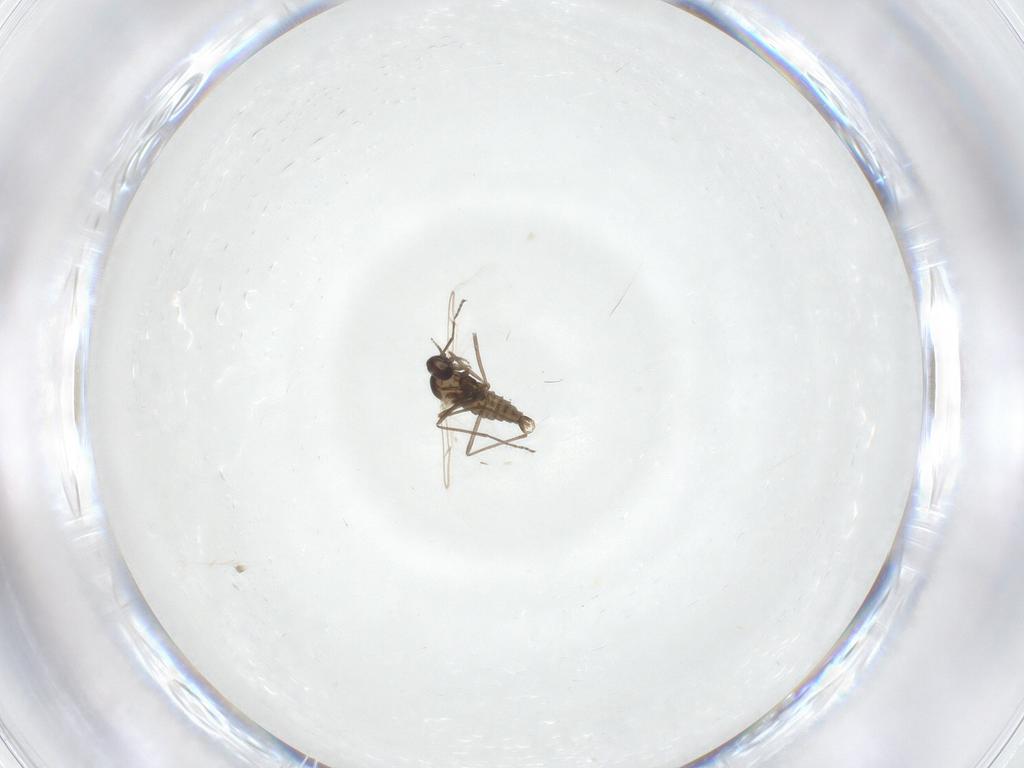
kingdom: Animalia
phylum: Arthropoda
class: Insecta
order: Diptera
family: Cecidomyiidae
